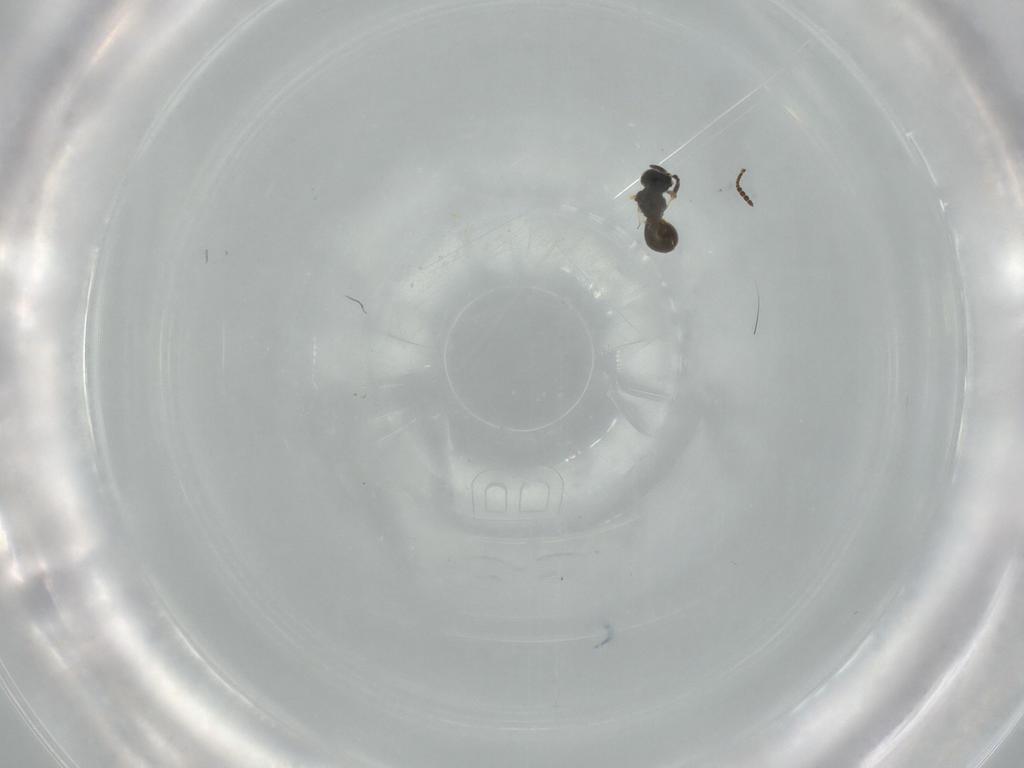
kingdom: Animalia
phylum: Arthropoda
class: Insecta
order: Hymenoptera
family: Scelionidae
